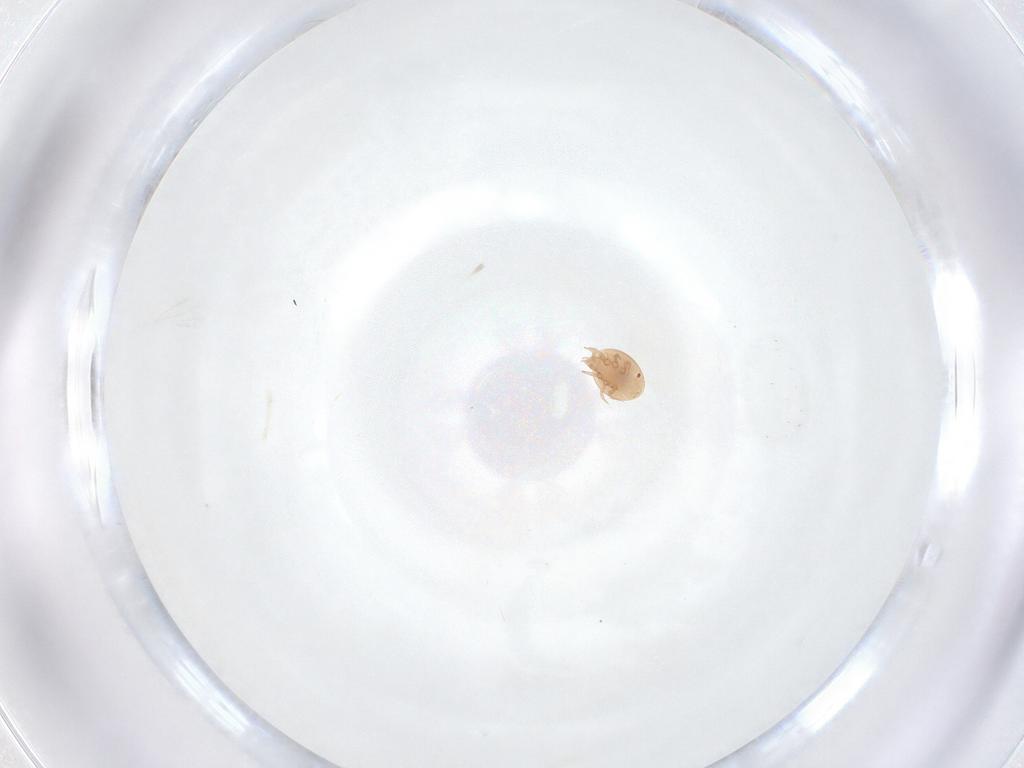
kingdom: Animalia
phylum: Arthropoda
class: Arachnida
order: Mesostigmata
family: Trematuridae
